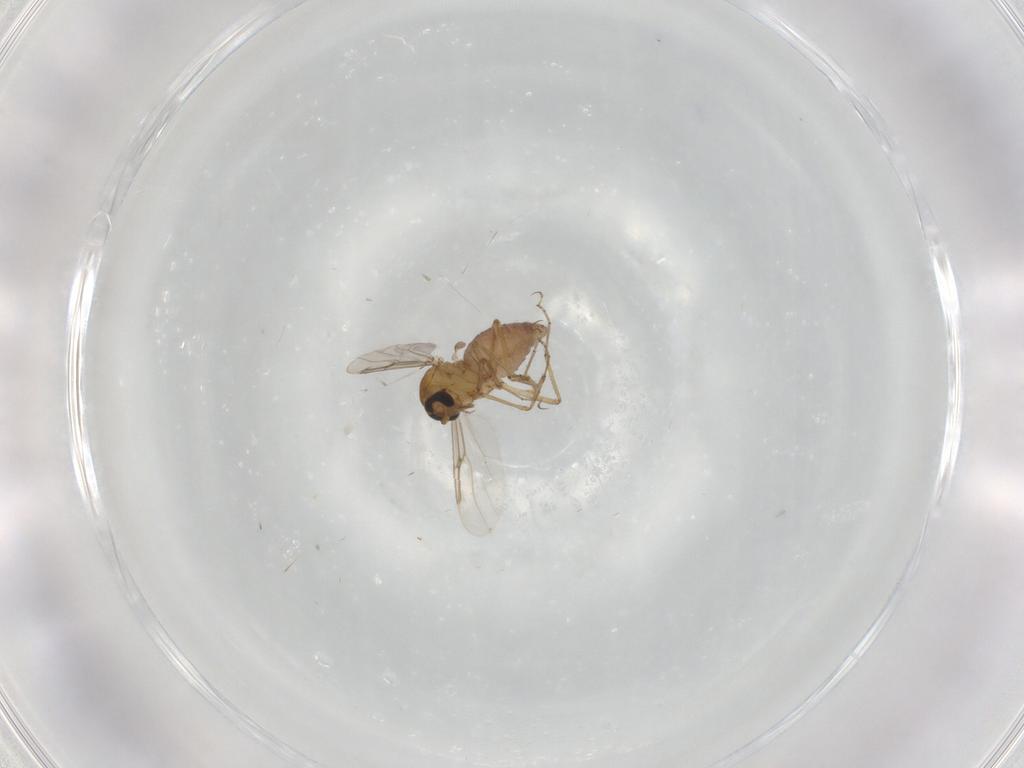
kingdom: Animalia
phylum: Arthropoda
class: Insecta
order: Diptera
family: Ceratopogonidae
